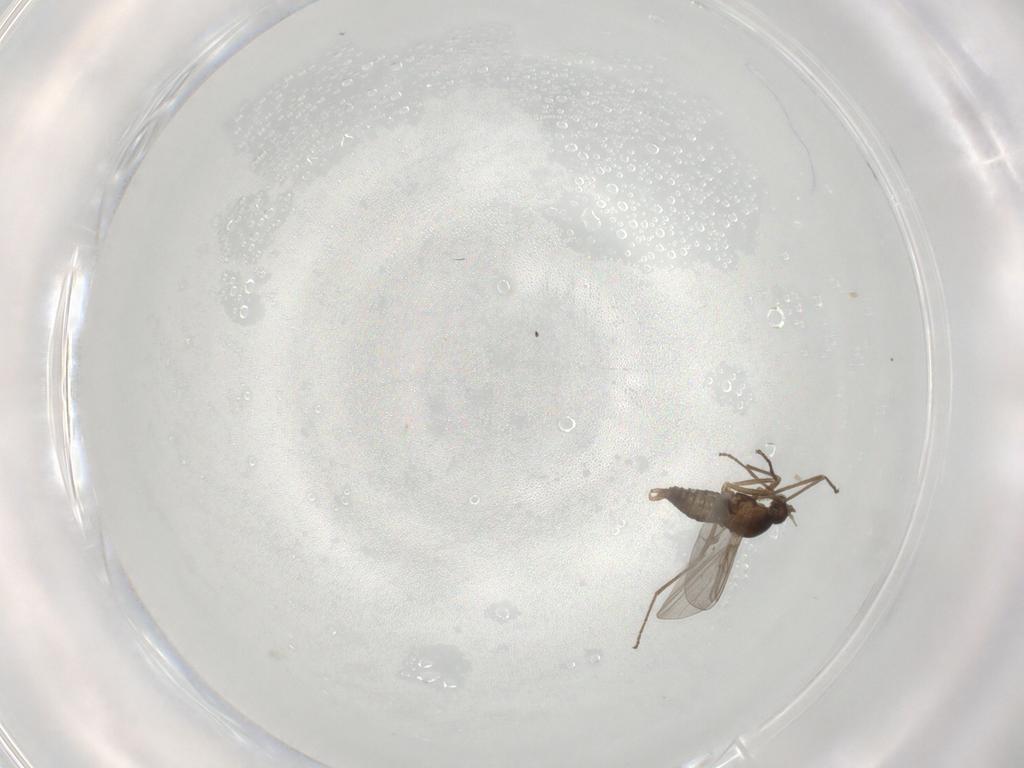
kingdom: Animalia
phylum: Arthropoda
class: Insecta
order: Diptera
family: Cecidomyiidae
